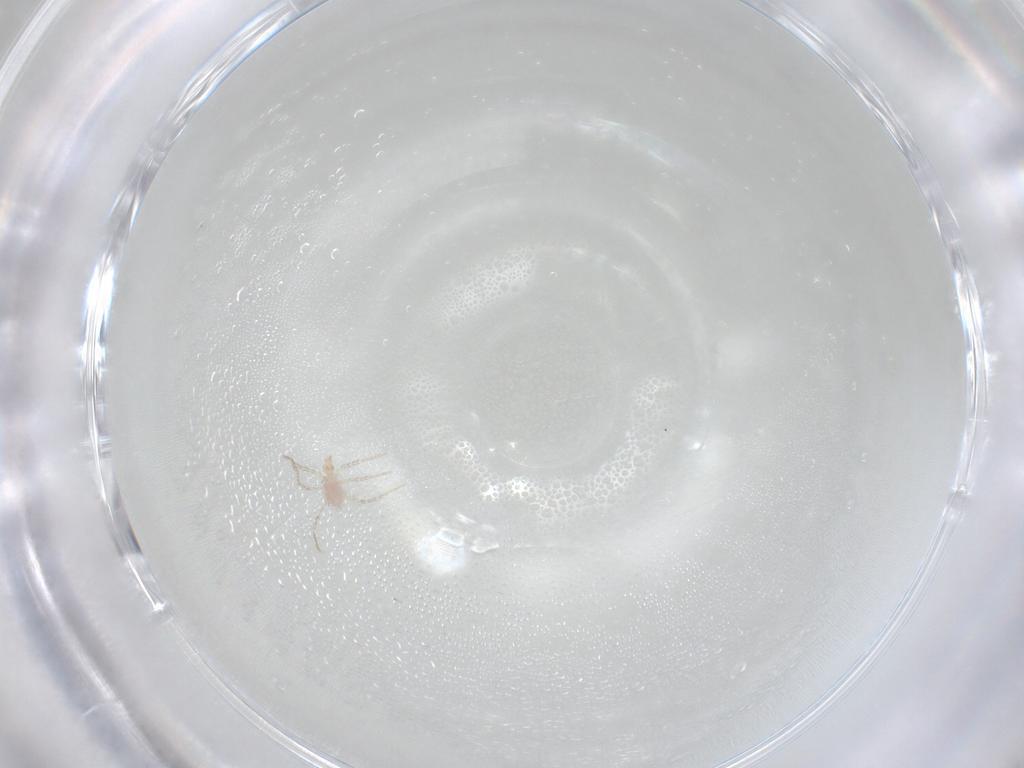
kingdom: Animalia
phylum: Arthropoda
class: Arachnida
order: Trombidiformes
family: Erythraeidae
